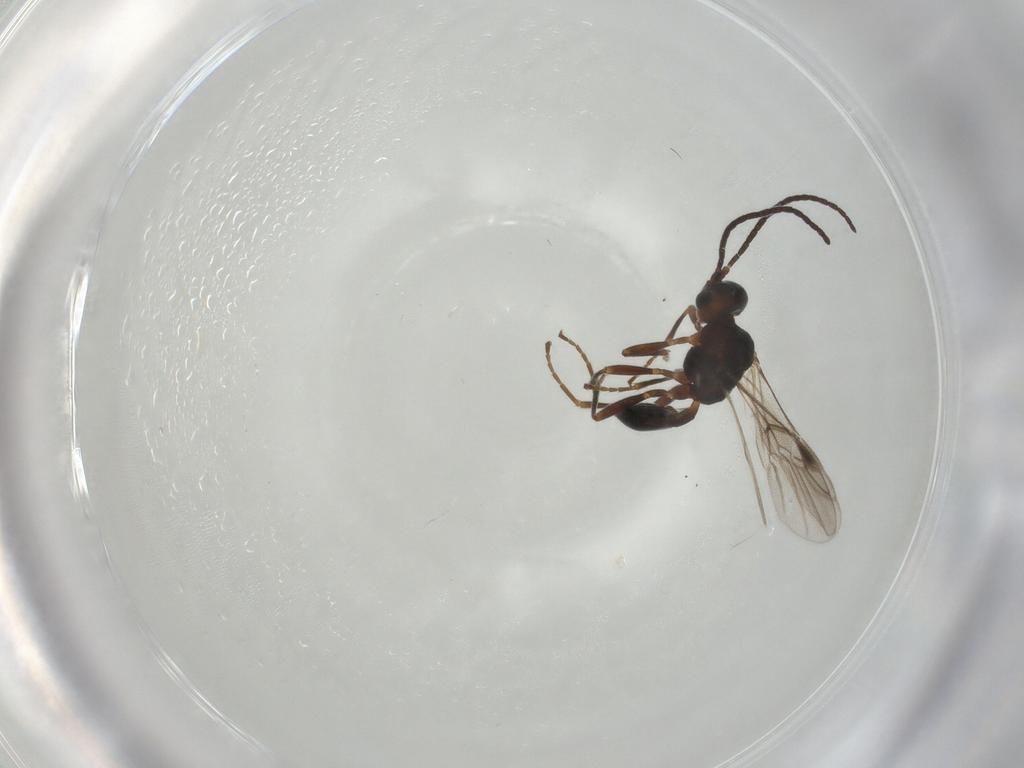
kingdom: Animalia
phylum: Arthropoda
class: Insecta
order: Hymenoptera
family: Braconidae
